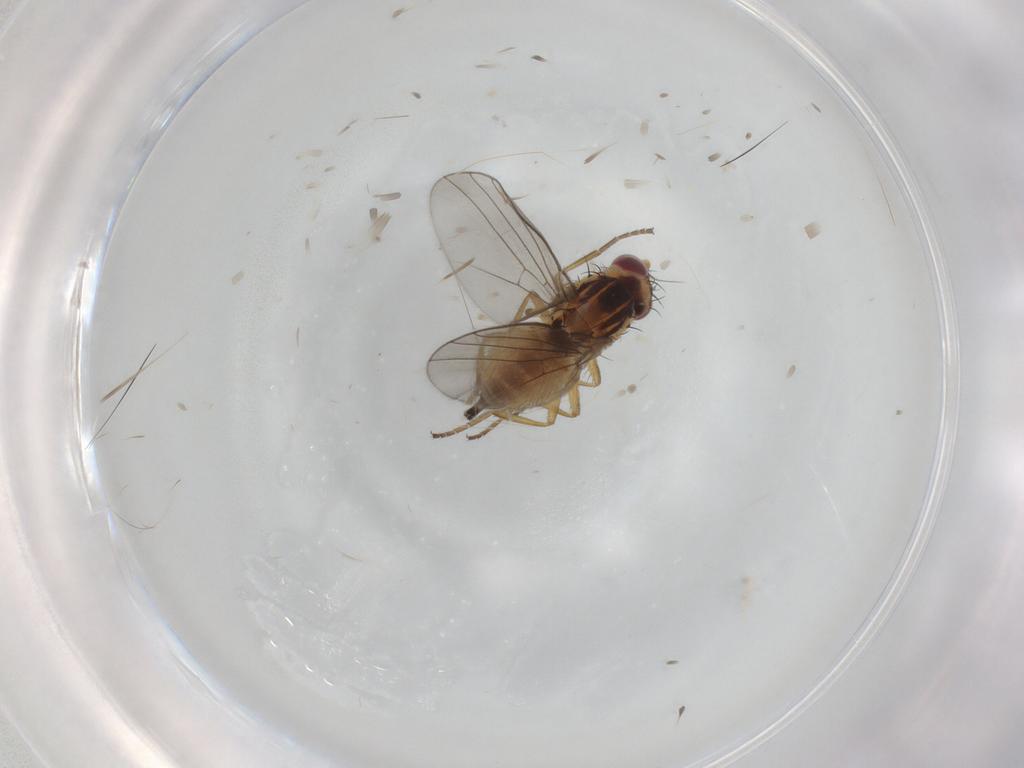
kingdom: Animalia
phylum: Arthropoda
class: Insecta
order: Diptera
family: Agromyzidae
